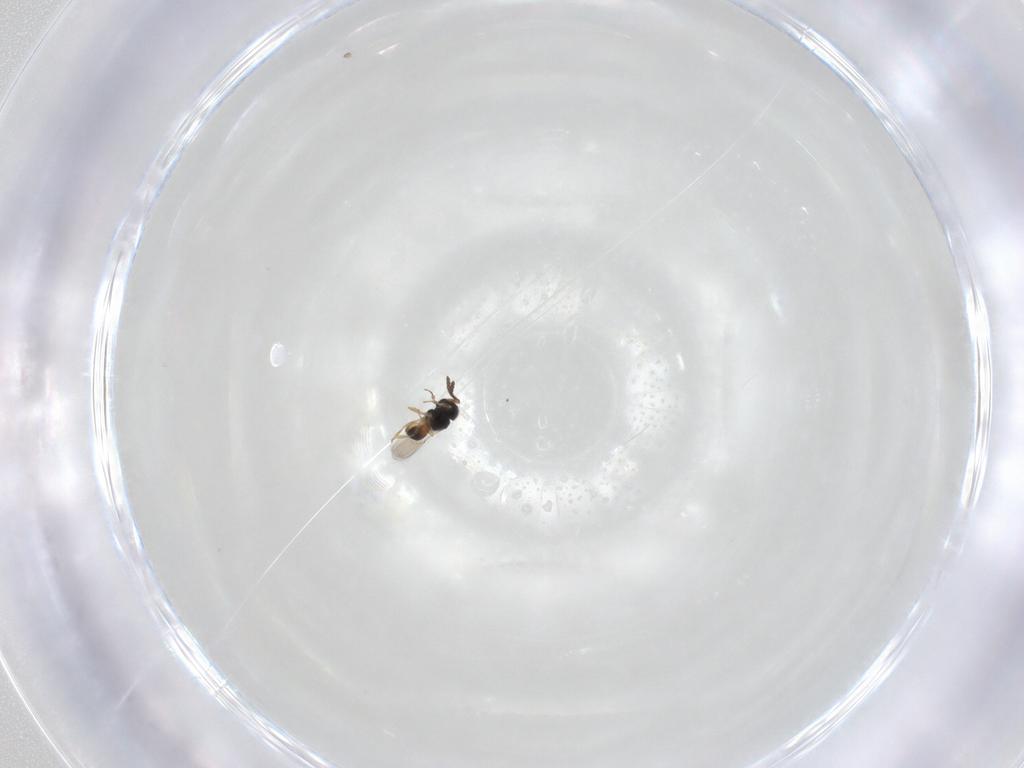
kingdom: Animalia
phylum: Arthropoda
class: Insecta
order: Hymenoptera
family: Scelionidae
